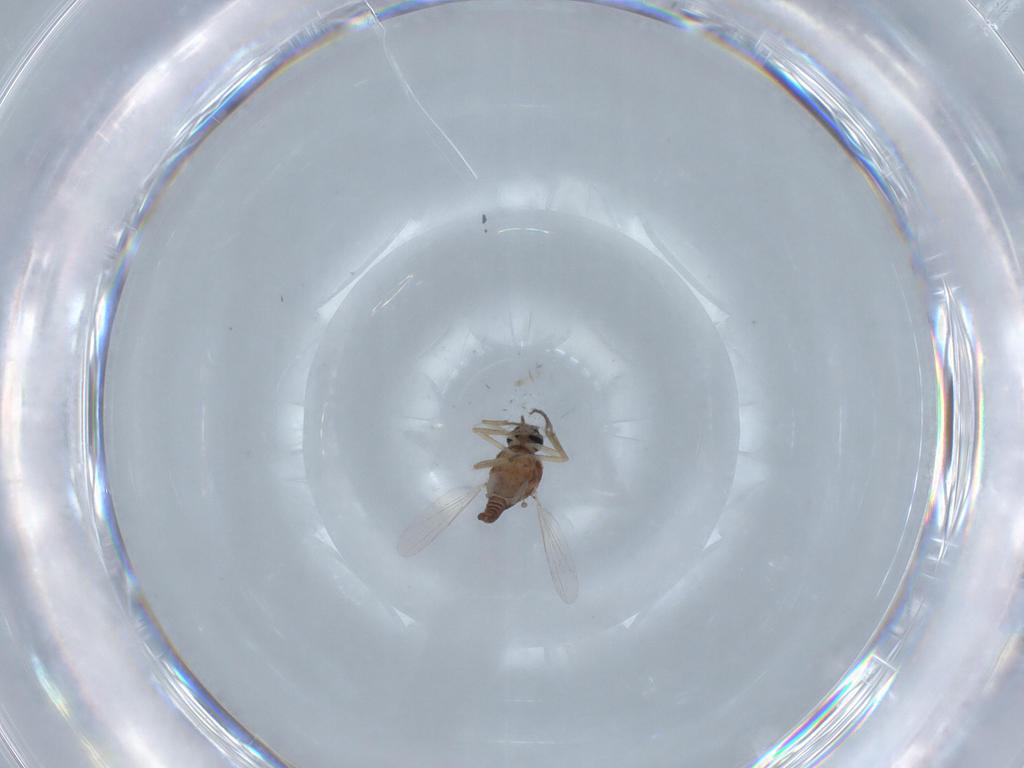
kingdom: Animalia
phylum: Arthropoda
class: Insecta
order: Diptera
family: Ceratopogonidae
